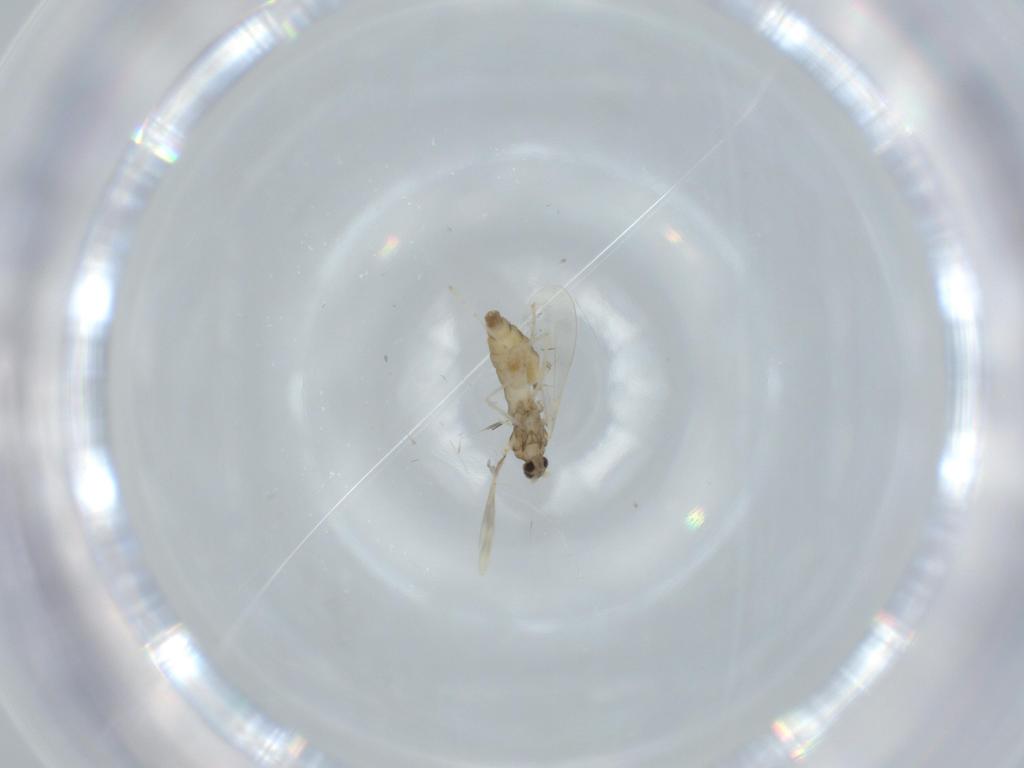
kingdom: Animalia
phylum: Arthropoda
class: Insecta
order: Diptera
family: Cecidomyiidae
